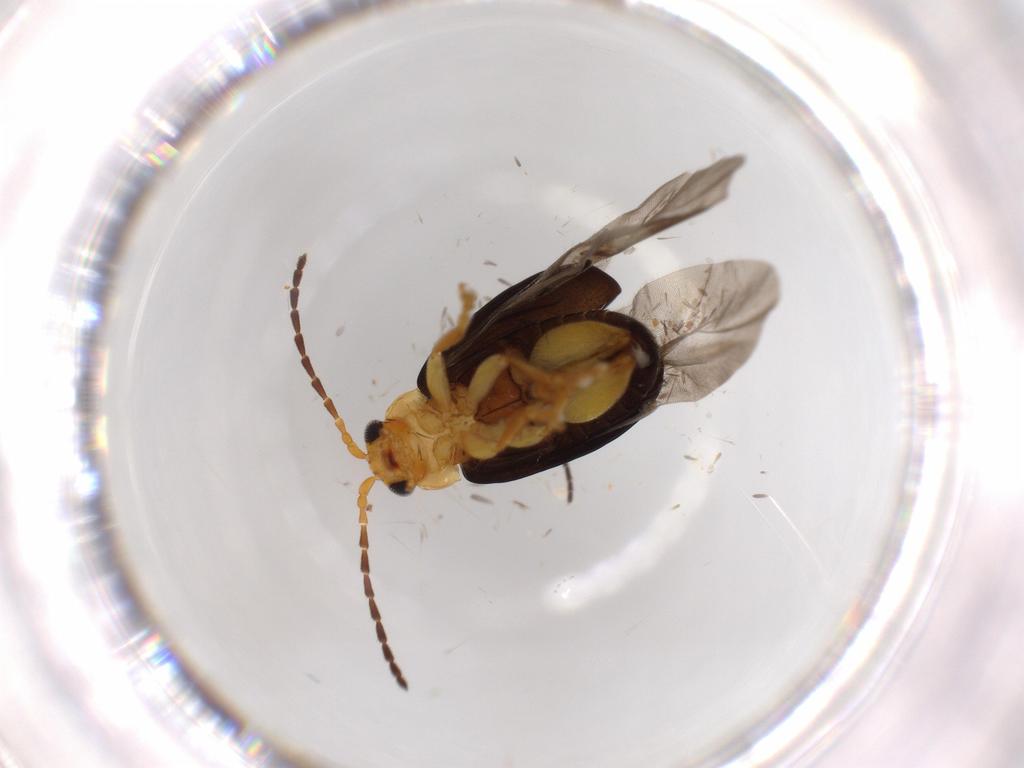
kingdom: Animalia
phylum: Arthropoda
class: Insecta
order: Coleoptera
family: Chrysomelidae
